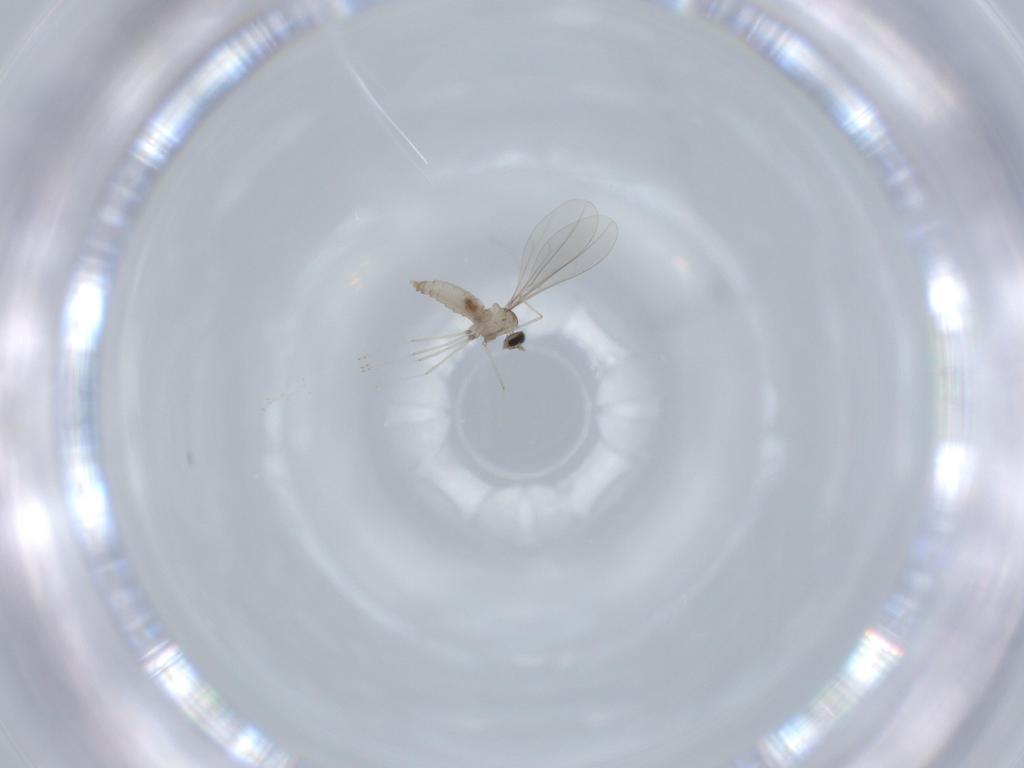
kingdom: Animalia
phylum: Arthropoda
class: Insecta
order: Diptera
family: Cecidomyiidae
